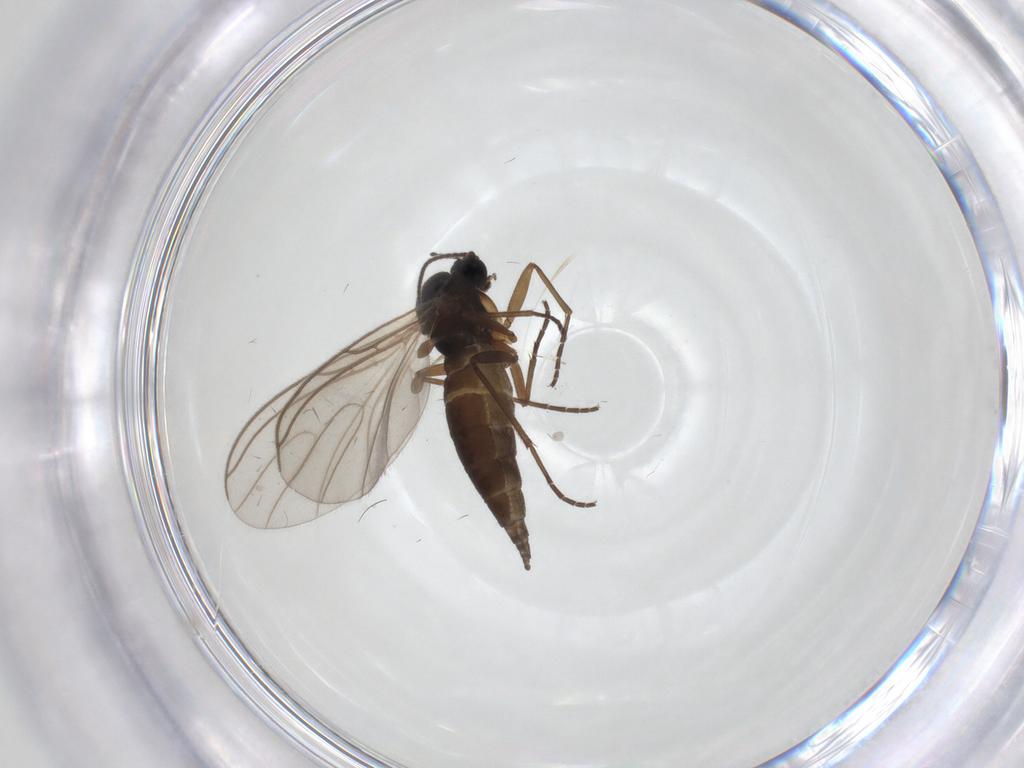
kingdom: Animalia
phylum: Arthropoda
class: Insecta
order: Diptera
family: Sciaridae
